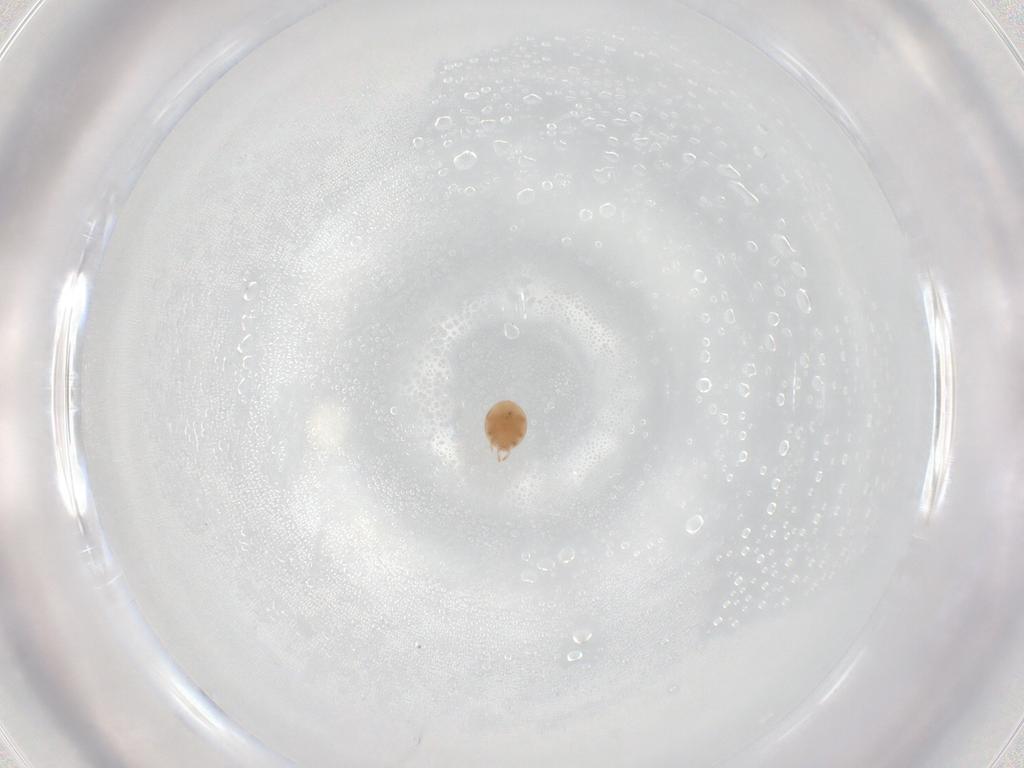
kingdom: Animalia
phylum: Arthropoda
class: Arachnida
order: Mesostigmata
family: Trematuridae
